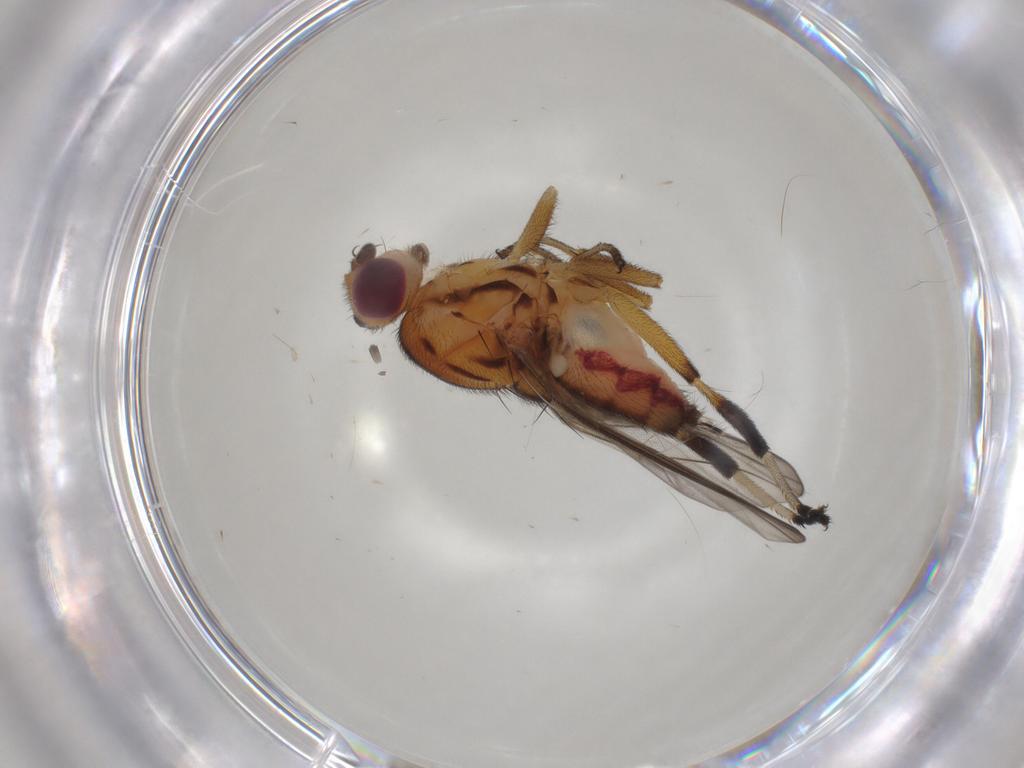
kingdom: Animalia
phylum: Arthropoda
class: Insecta
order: Diptera
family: Chloropidae
